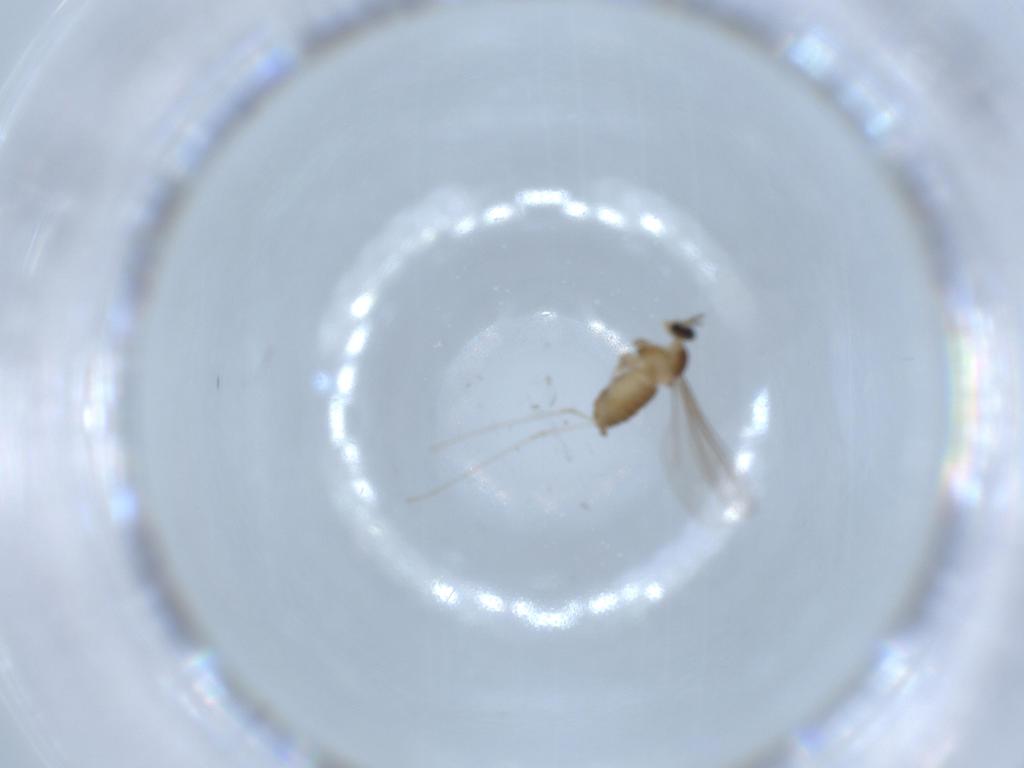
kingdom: Animalia
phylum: Arthropoda
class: Insecta
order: Diptera
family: Cecidomyiidae
